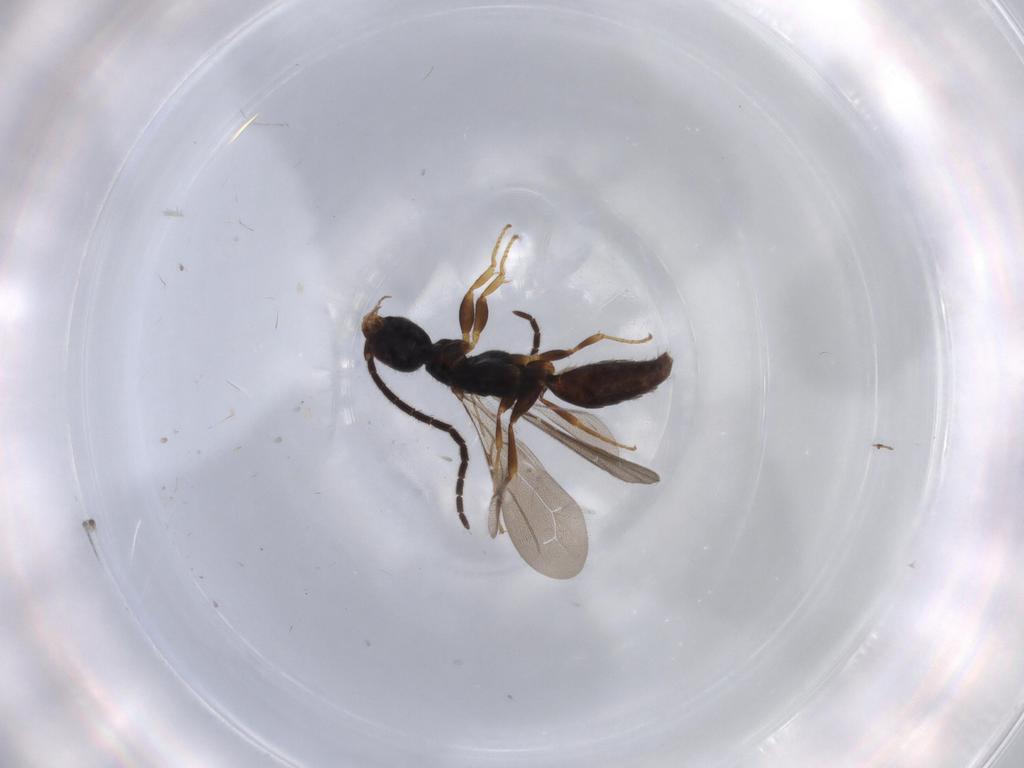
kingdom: Animalia
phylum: Arthropoda
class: Insecta
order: Hymenoptera
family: Bethylidae
